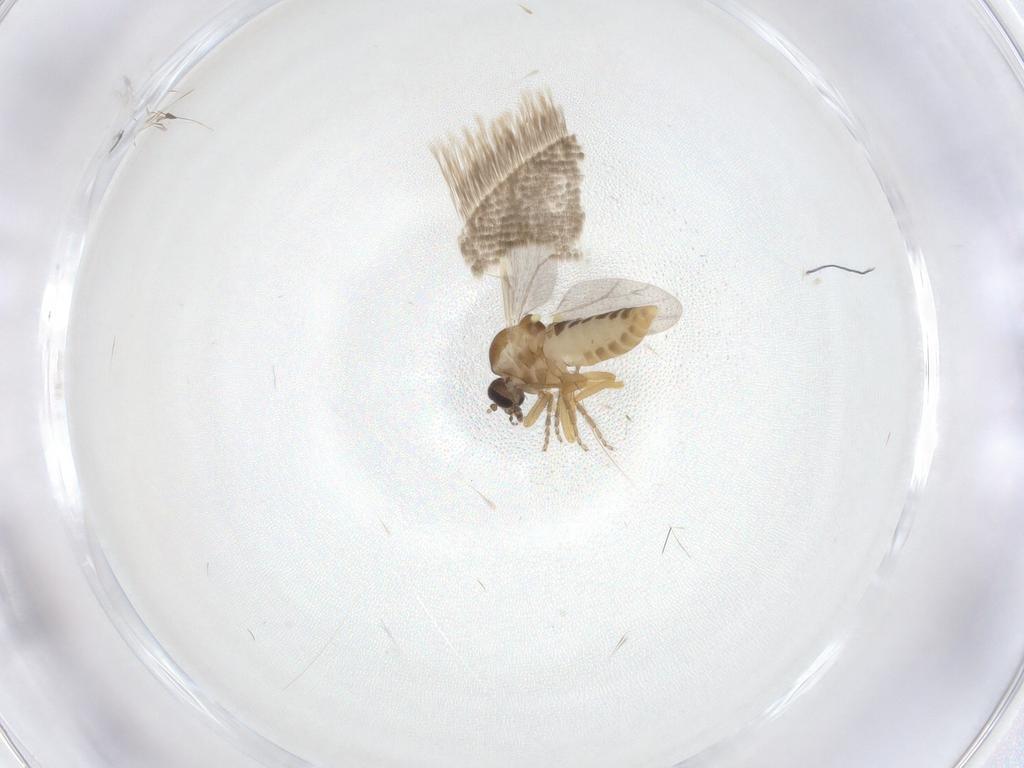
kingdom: Animalia
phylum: Arthropoda
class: Insecta
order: Diptera
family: Ceratopogonidae
